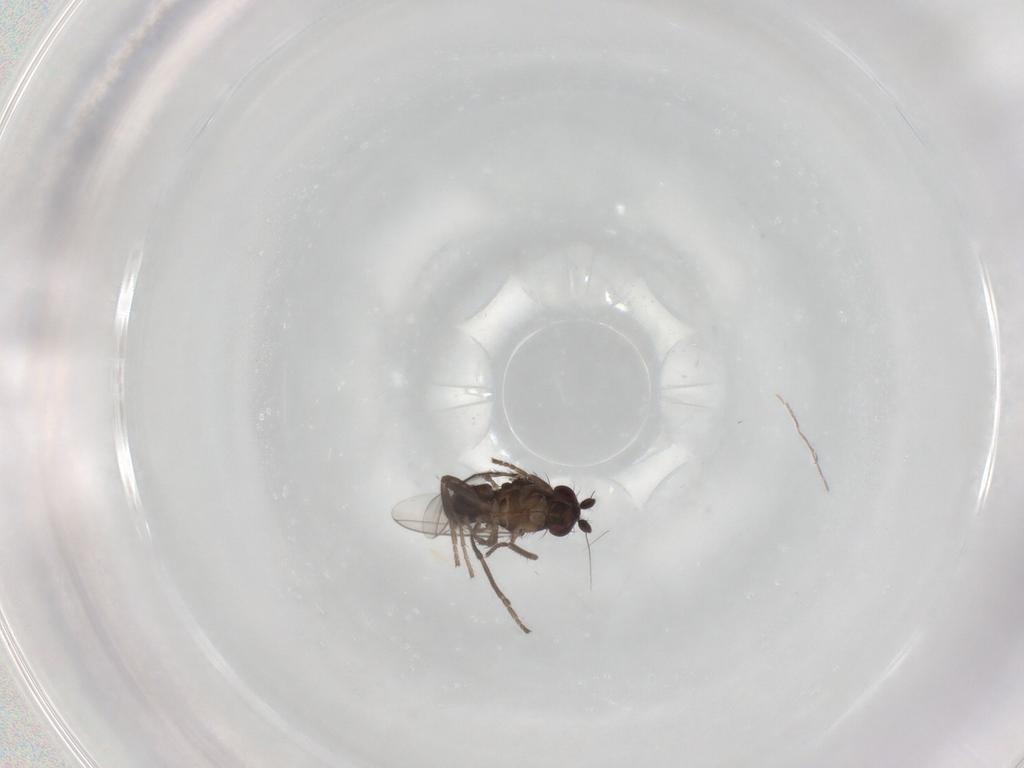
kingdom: Animalia
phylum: Arthropoda
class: Insecta
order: Diptera
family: Sphaeroceridae
